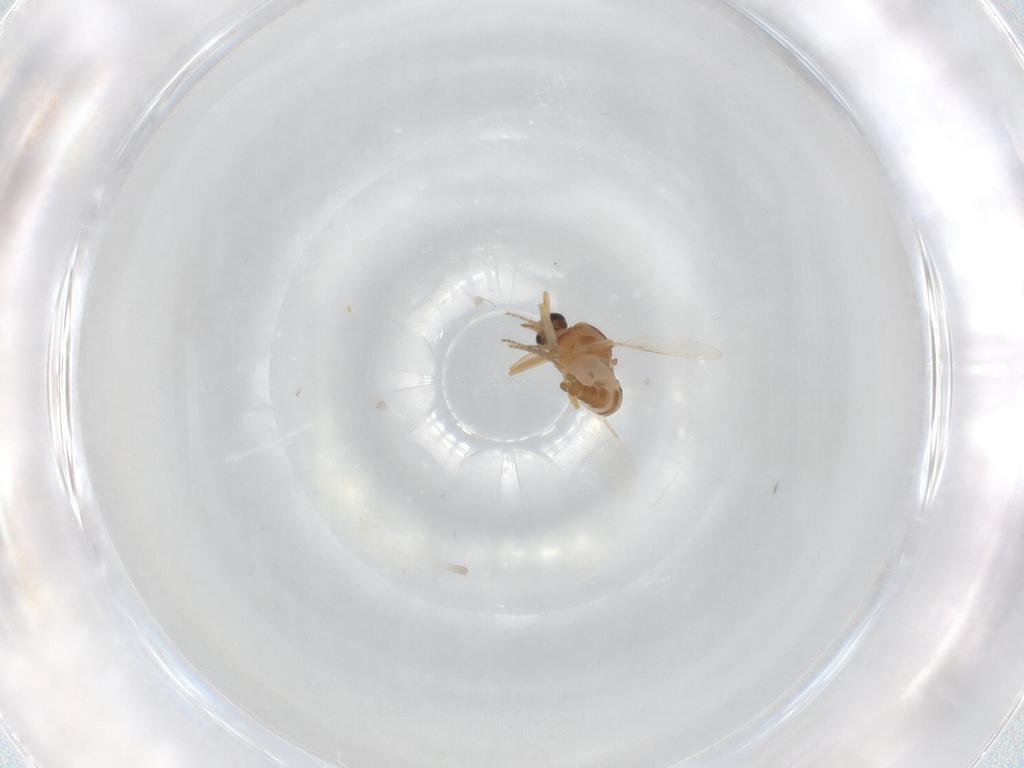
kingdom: Animalia
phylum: Arthropoda
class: Insecta
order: Diptera
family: Ceratopogonidae
